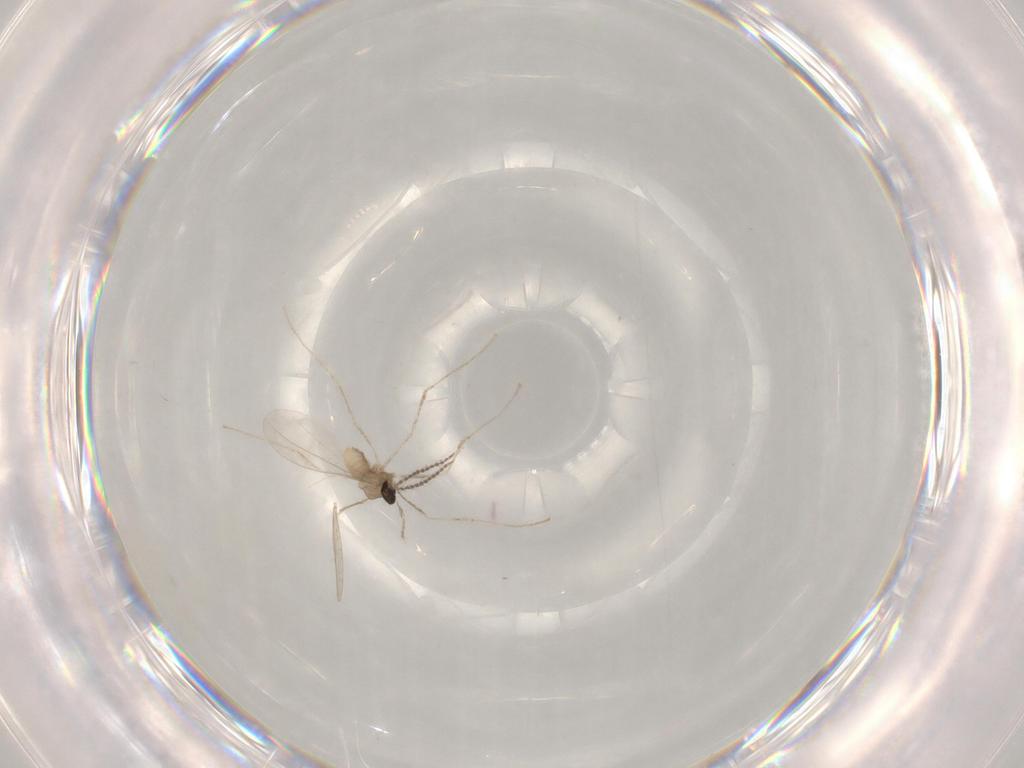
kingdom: Animalia
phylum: Arthropoda
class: Insecta
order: Diptera
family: Cecidomyiidae
